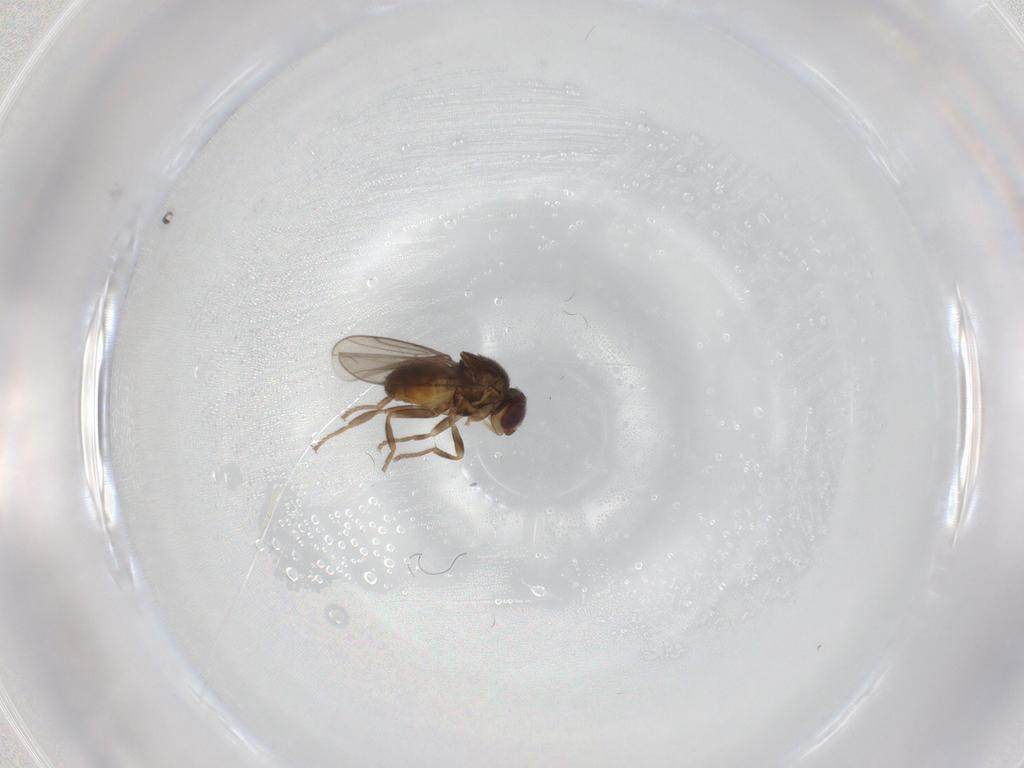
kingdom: Animalia
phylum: Arthropoda
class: Insecta
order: Diptera
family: Chloropidae
